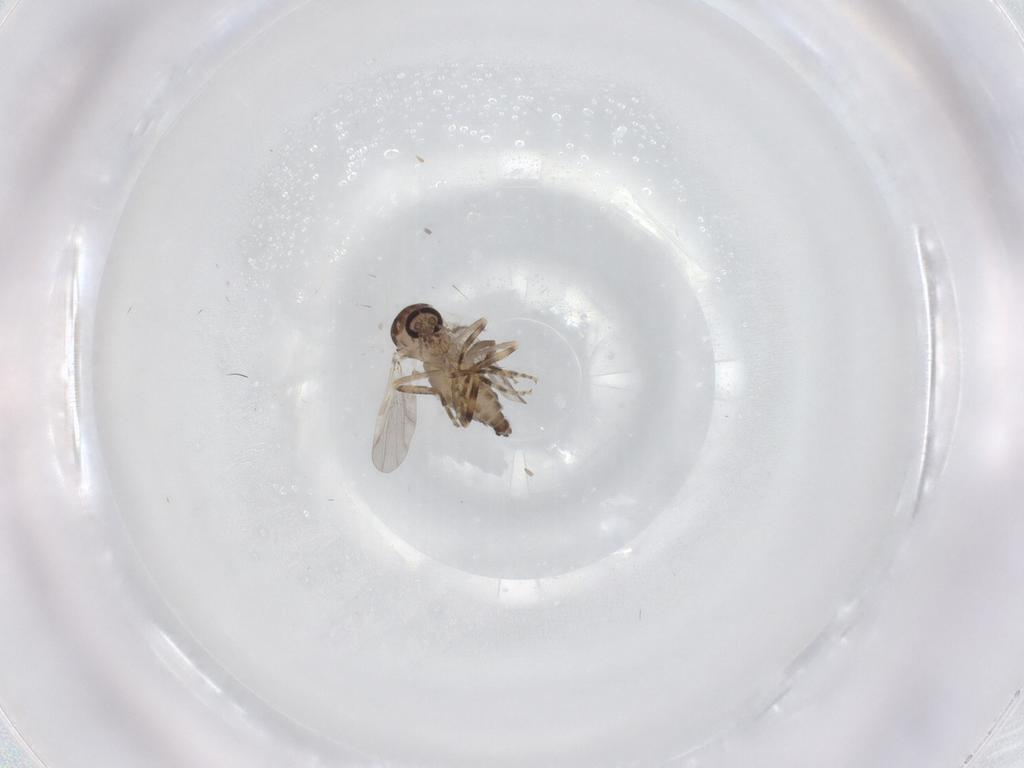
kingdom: Animalia
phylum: Arthropoda
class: Insecta
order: Diptera
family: Ceratopogonidae
